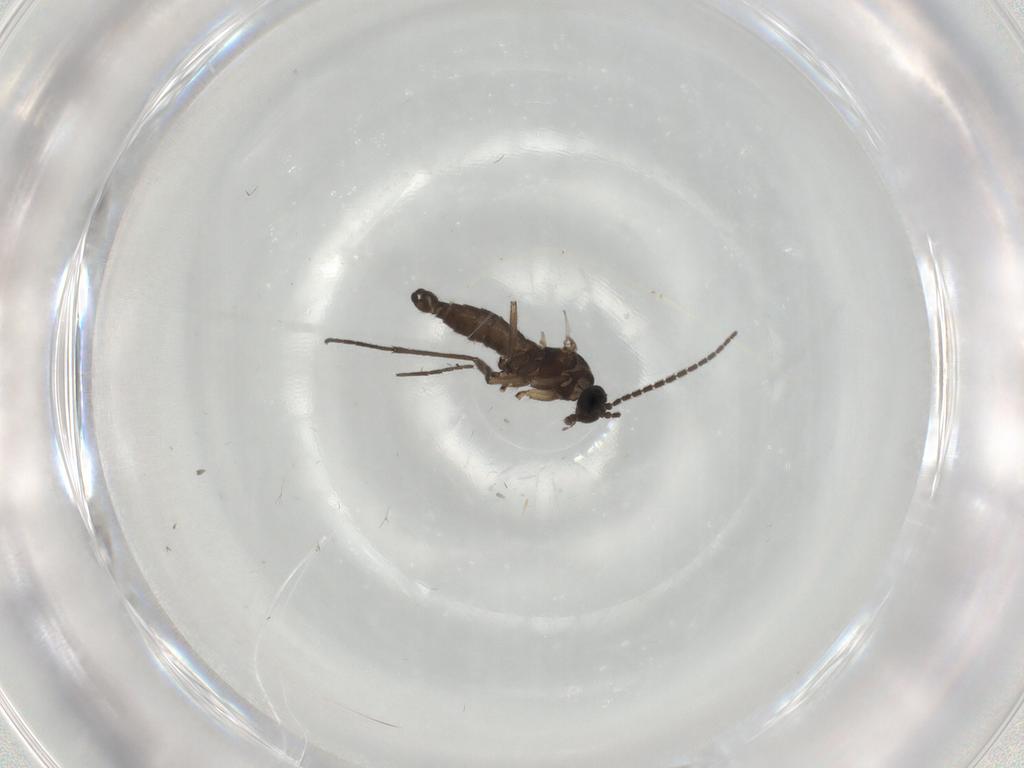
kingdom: Animalia
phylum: Arthropoda
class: Insecta
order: Diptera
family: Sciaridae
